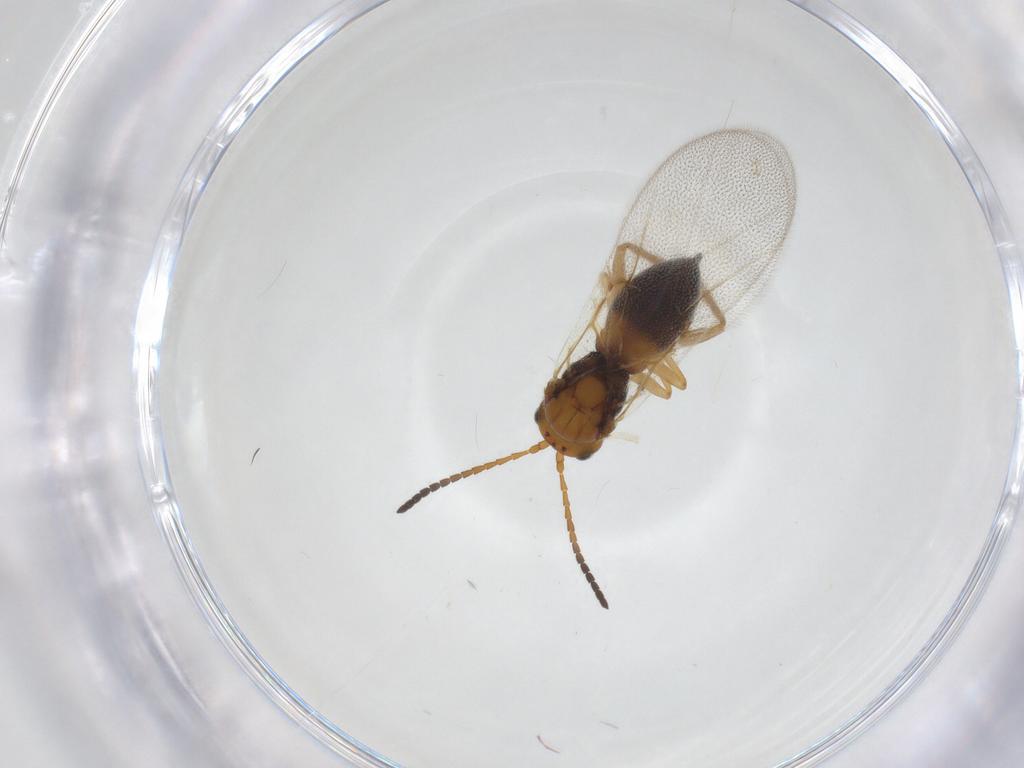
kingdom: Animalia
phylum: Arthropoda
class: Insecta
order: Hymenoptera
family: Cynipidae
